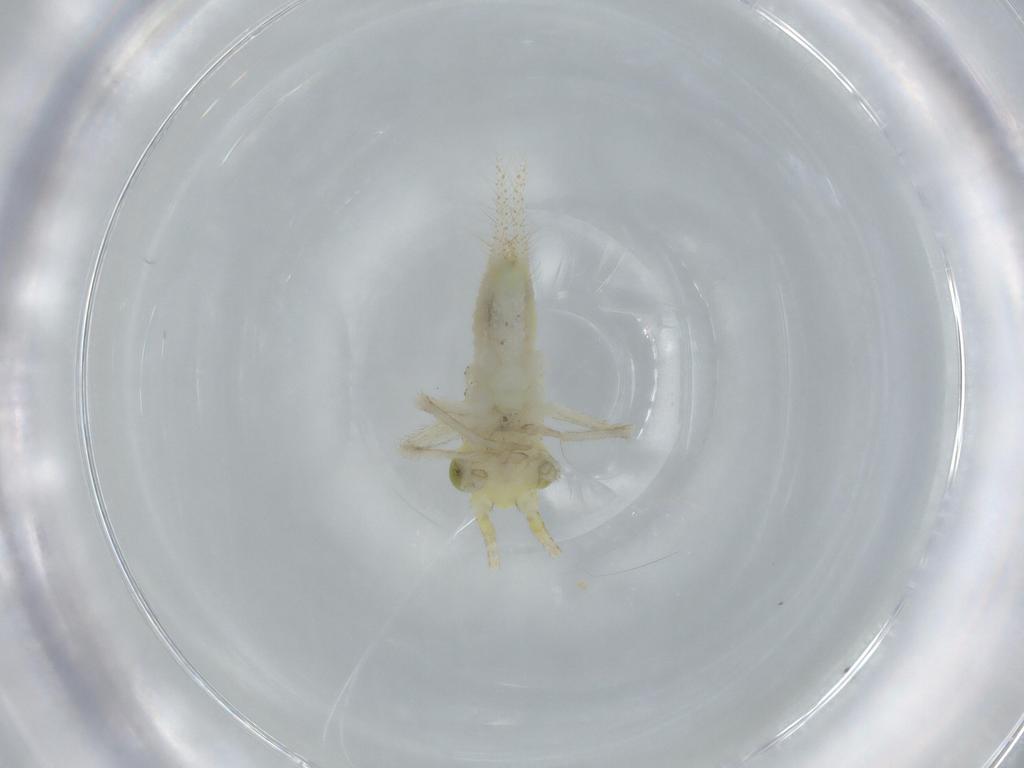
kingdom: Animalia
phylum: Arthropoda
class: Insecta
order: Orthoptera
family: Trigonidiidae
